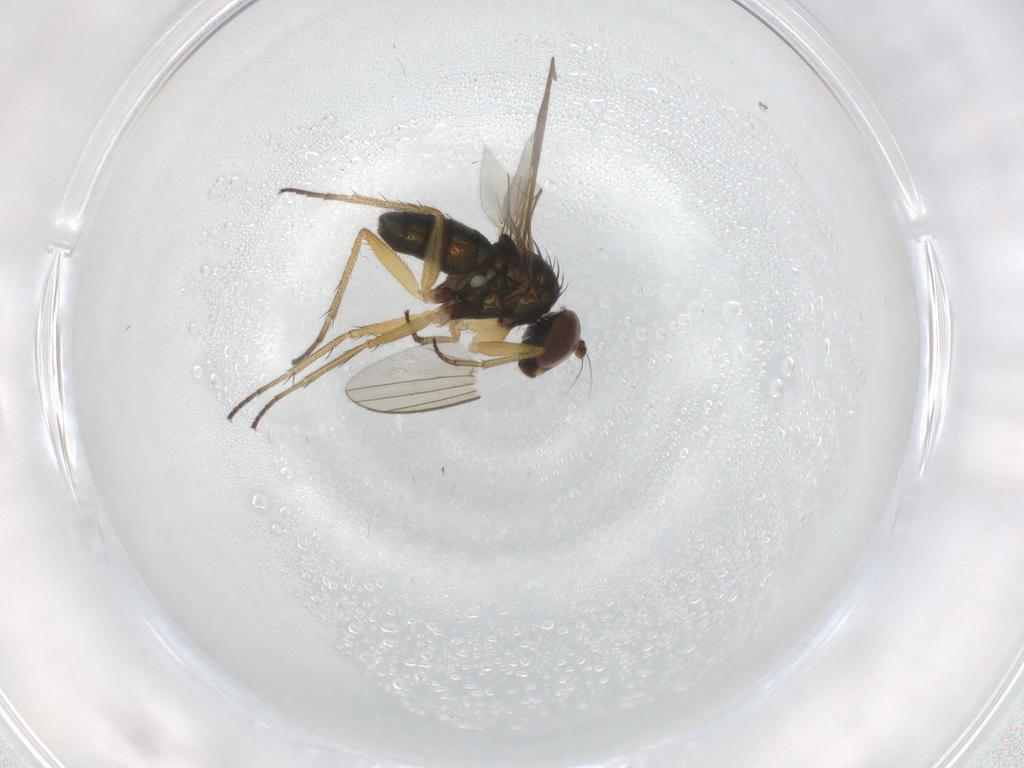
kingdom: Animalia
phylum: Arthropoda
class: Insecta
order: Diptera
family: Dolichopodidae
